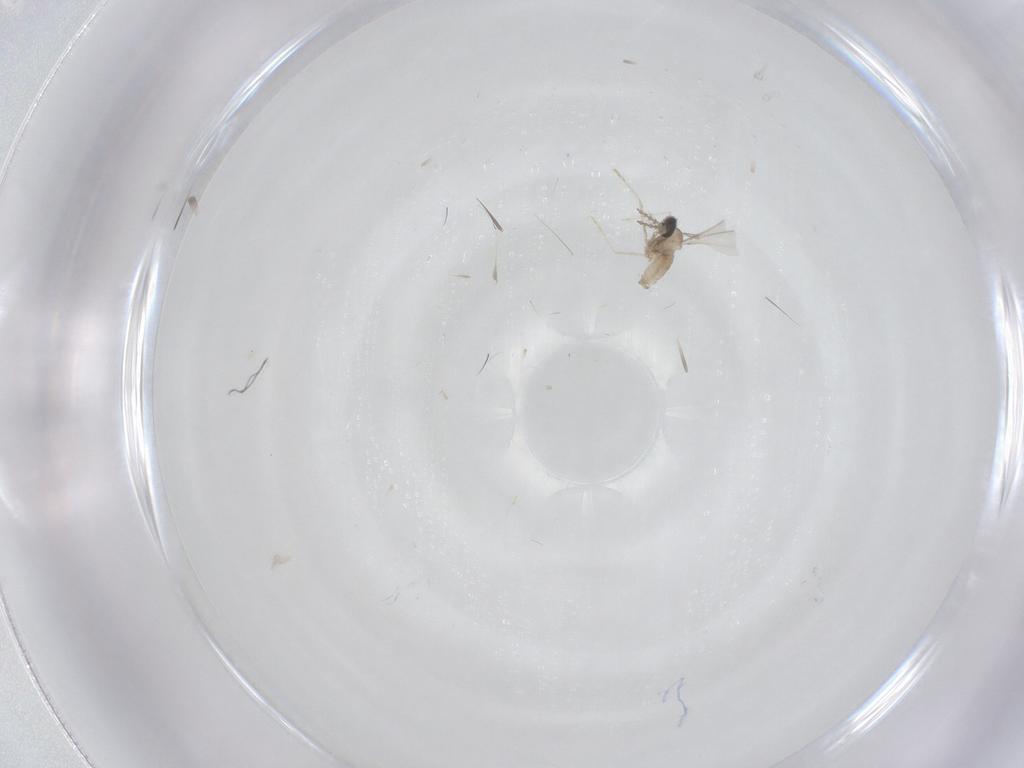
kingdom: Animalia
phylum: Arthropoda
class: Insecta
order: Diptera
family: Cecidomyiidae
